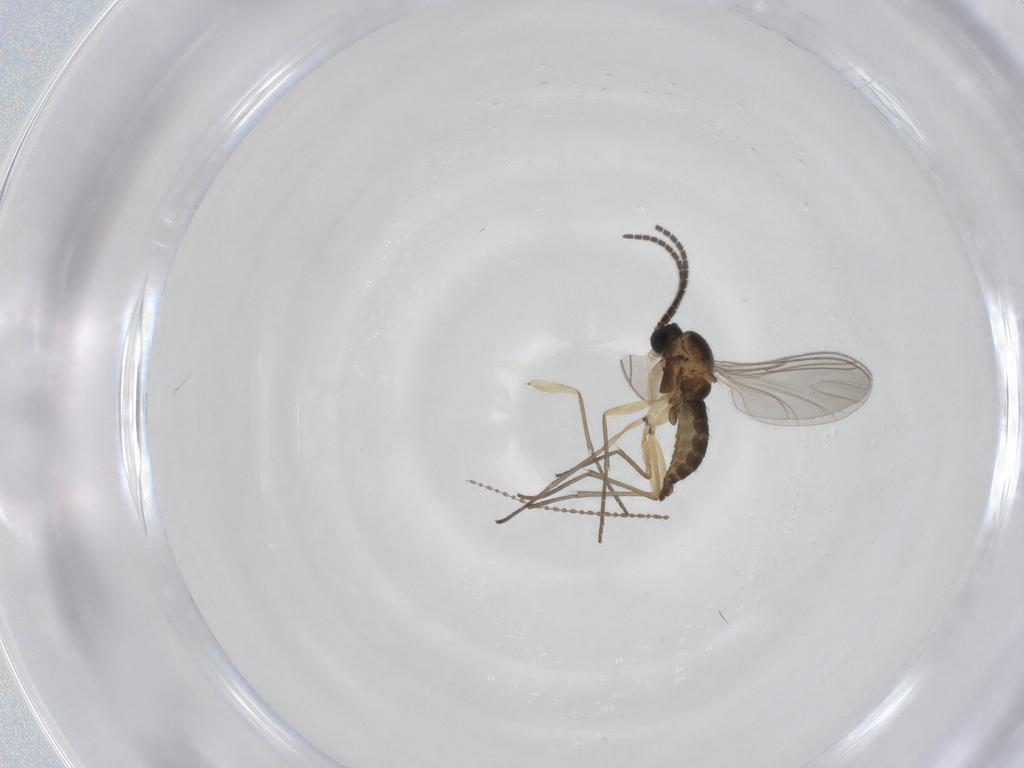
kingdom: Animalia
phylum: Arthropoda
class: Insecta
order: Diptera
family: Sciaridae
